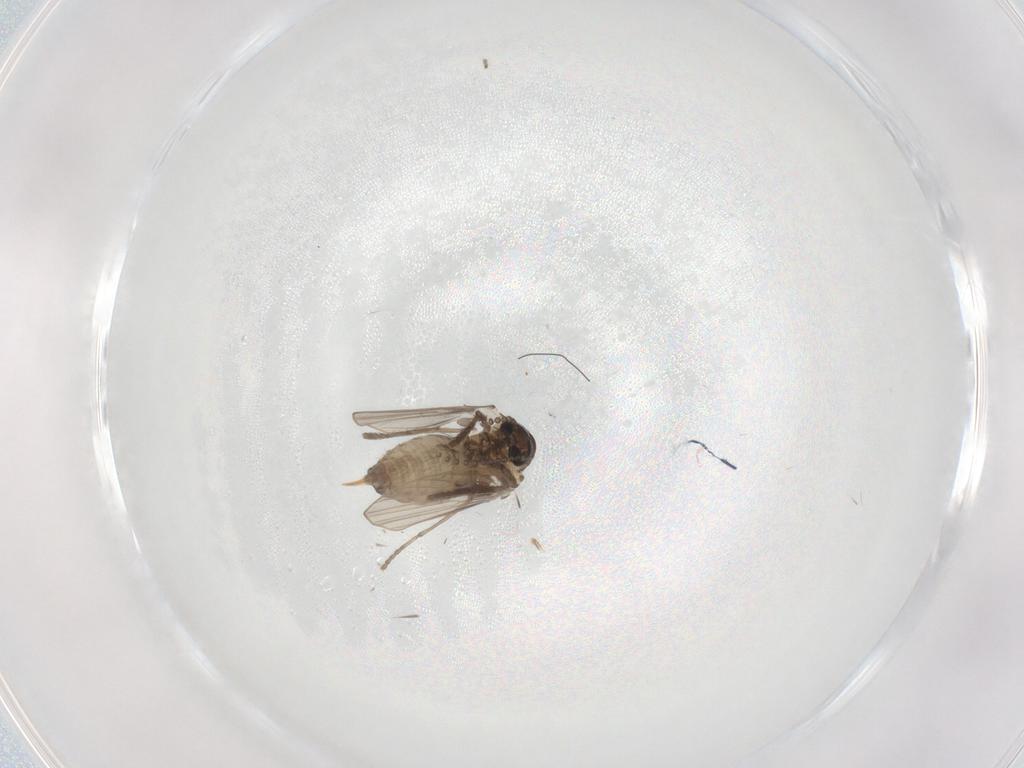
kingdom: Animalia
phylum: Arthropoda
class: Insecta
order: Diptera
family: Psychodidae
